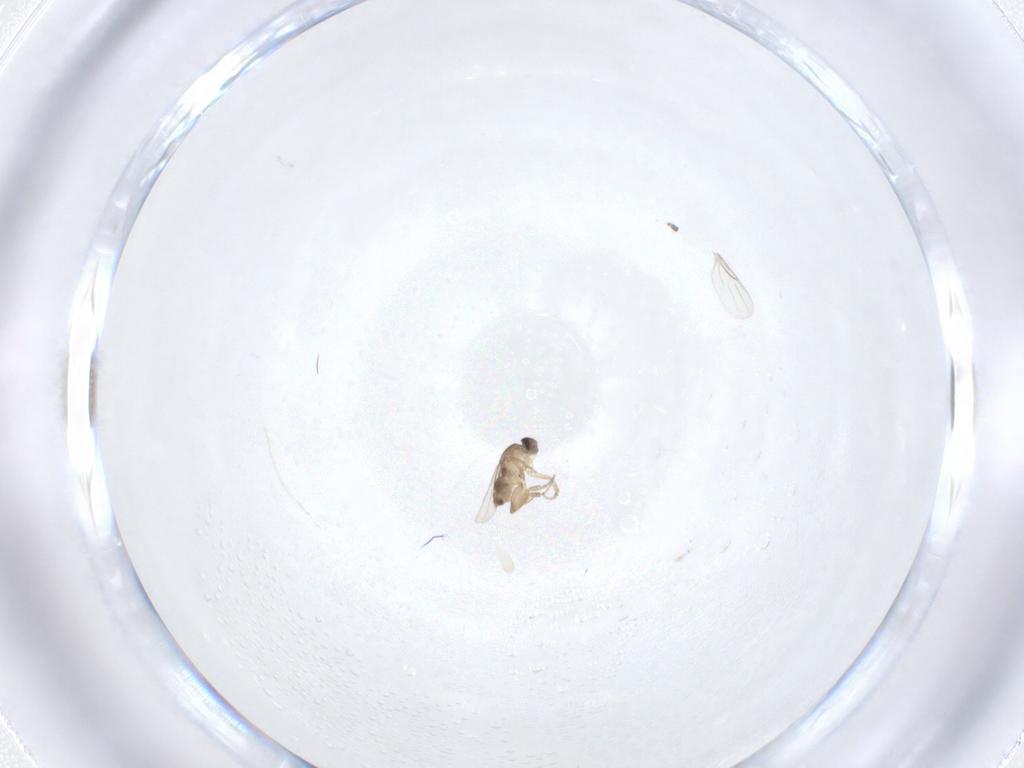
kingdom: Animalia
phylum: Arthropoda
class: Insecta
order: Diptera
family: Phoridae
